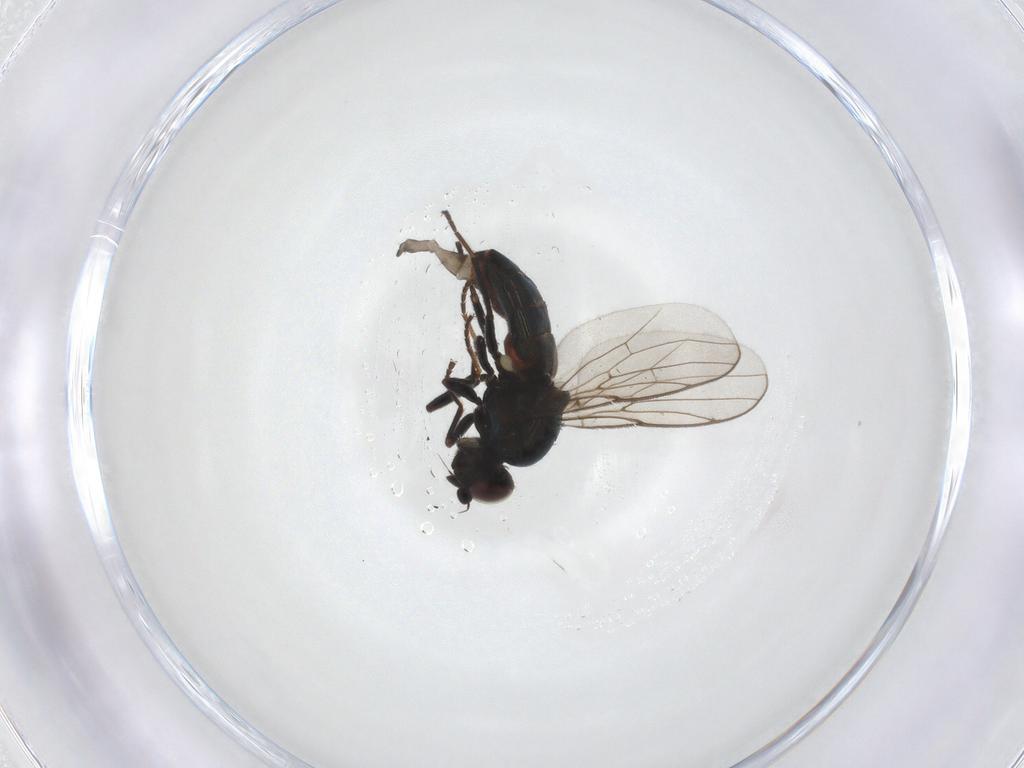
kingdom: Animalia
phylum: Arthropoda
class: Insecta
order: Diptera
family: Chloropidae
